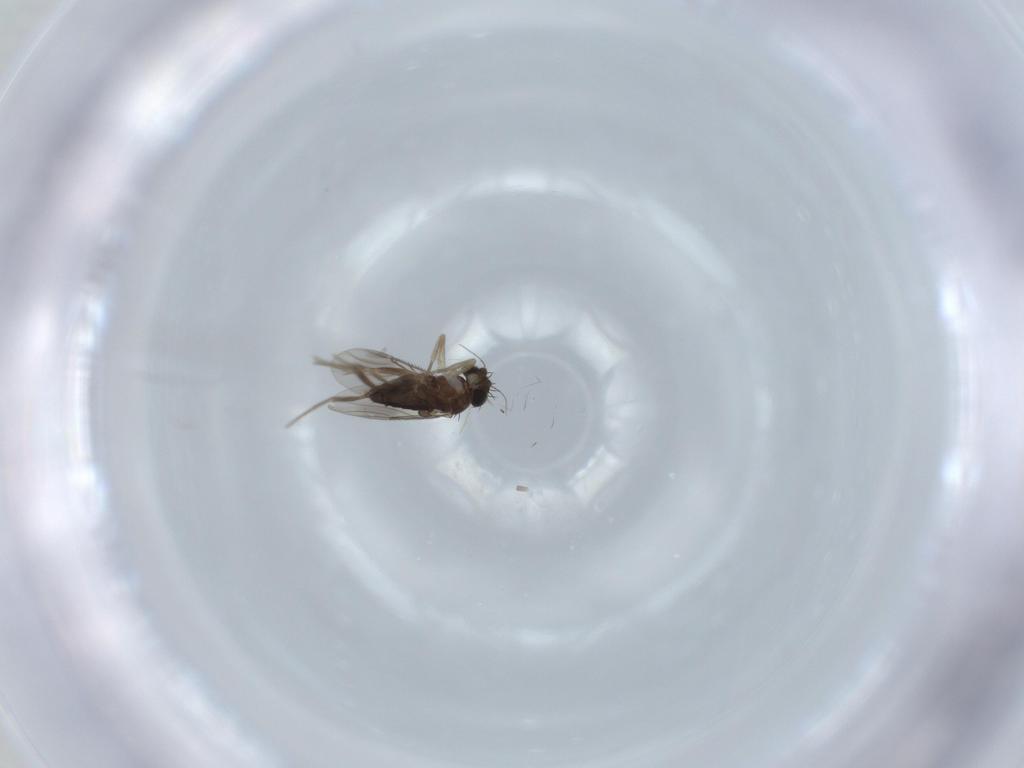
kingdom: Animalia
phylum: Arthropoda
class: Insecta
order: Diptera
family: Phoridae
